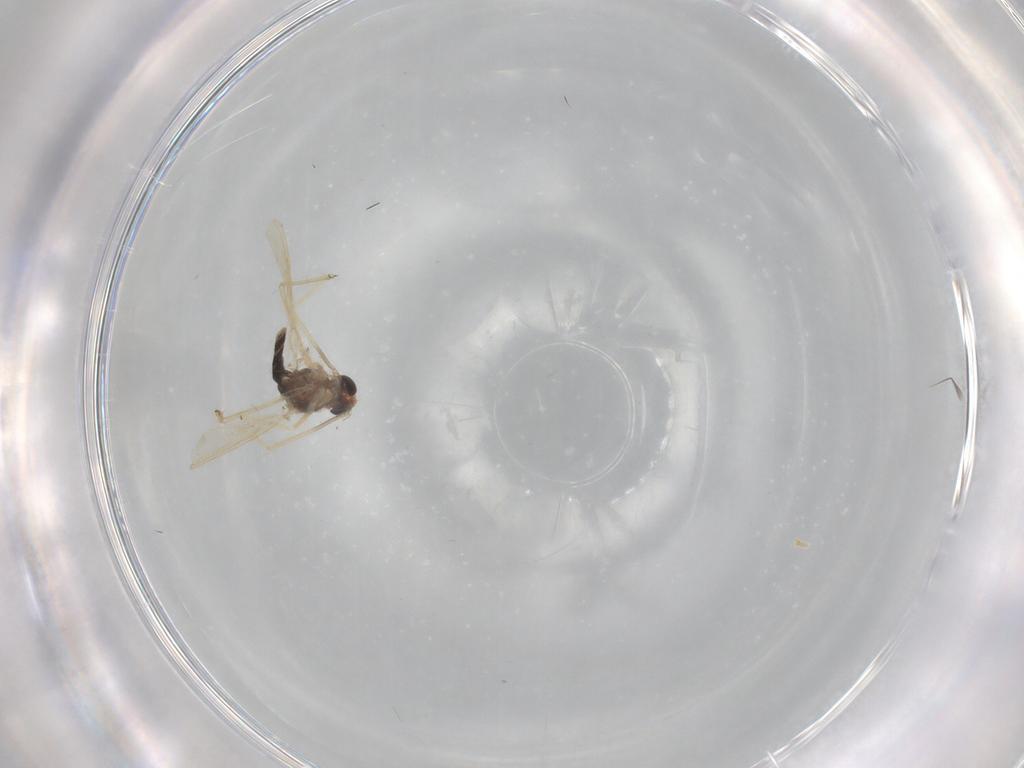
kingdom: Animalia
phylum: Arthropoda
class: Insecta
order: Diptera
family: Chironomidae
